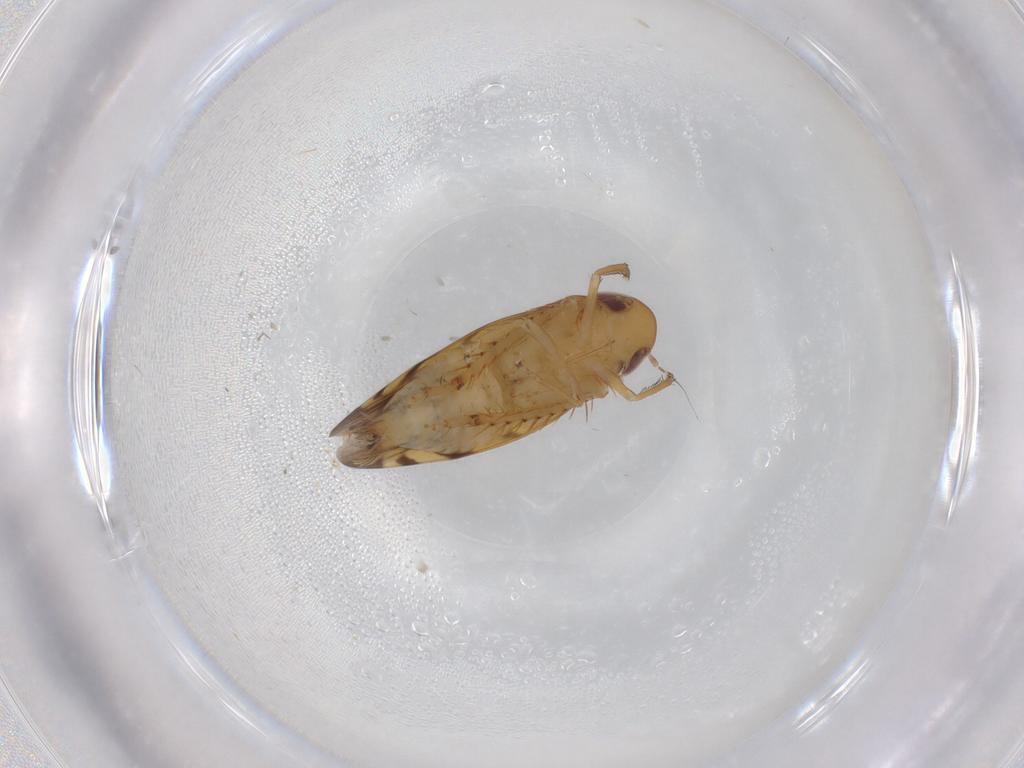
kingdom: Animalia
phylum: Arthropoda
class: Insecta
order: Hemiptera
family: Cicadellidae
